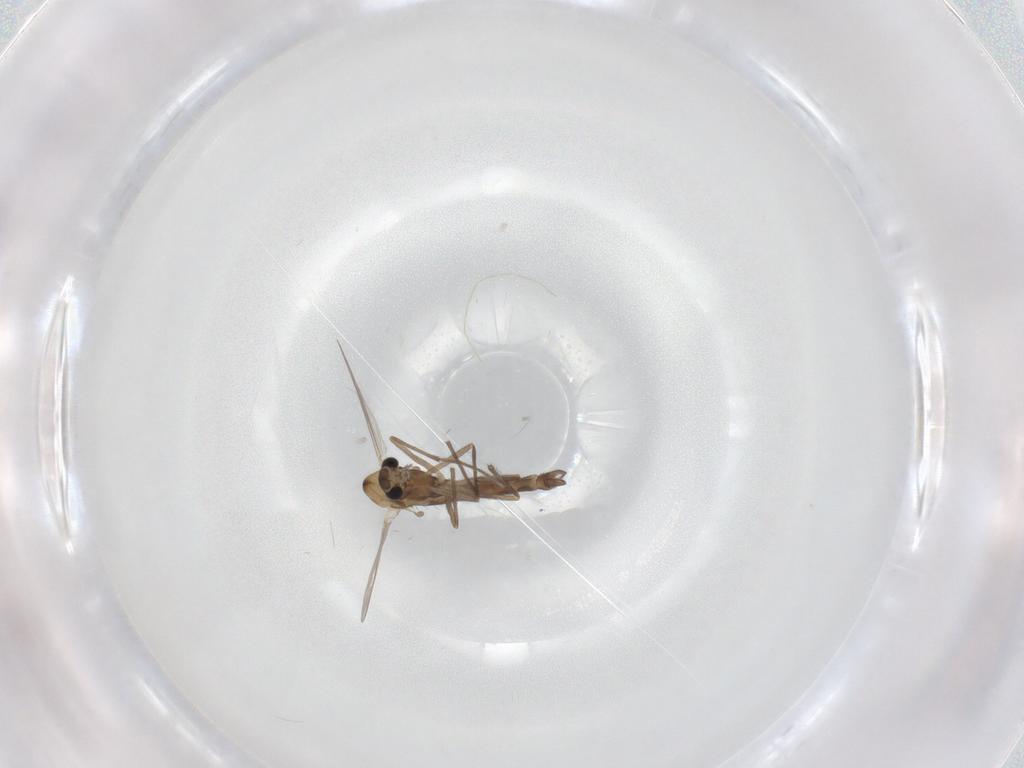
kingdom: Animalia
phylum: Arthropoda
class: Insecta
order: Diptera
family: Chironomidae
